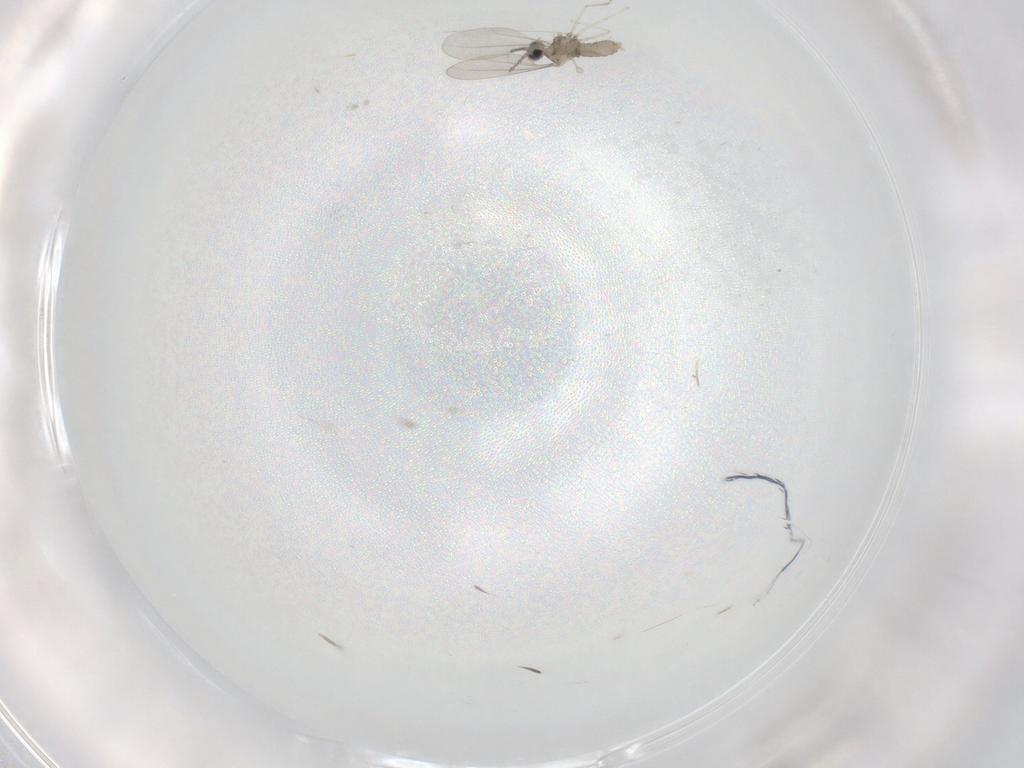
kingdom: Animalia
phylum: Arthropoda
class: Insecta
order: Diptera
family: Cecidomyiidae
